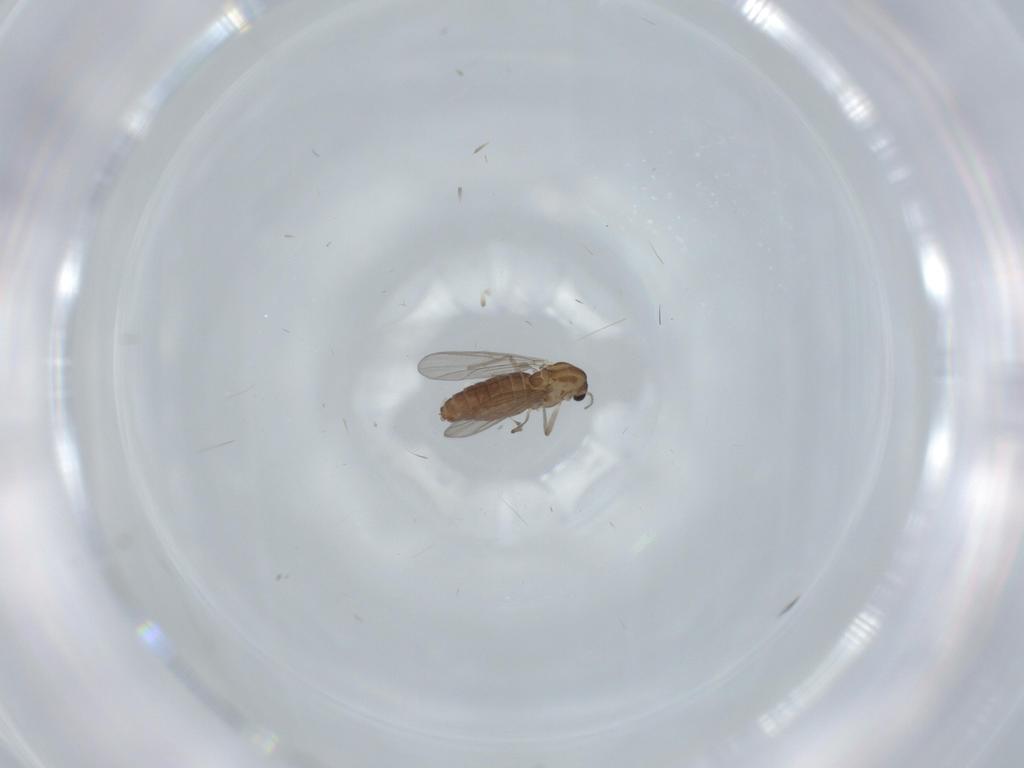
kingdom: Animalia
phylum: Arthropoda
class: Insecta
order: Diptera
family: Chironomidae
